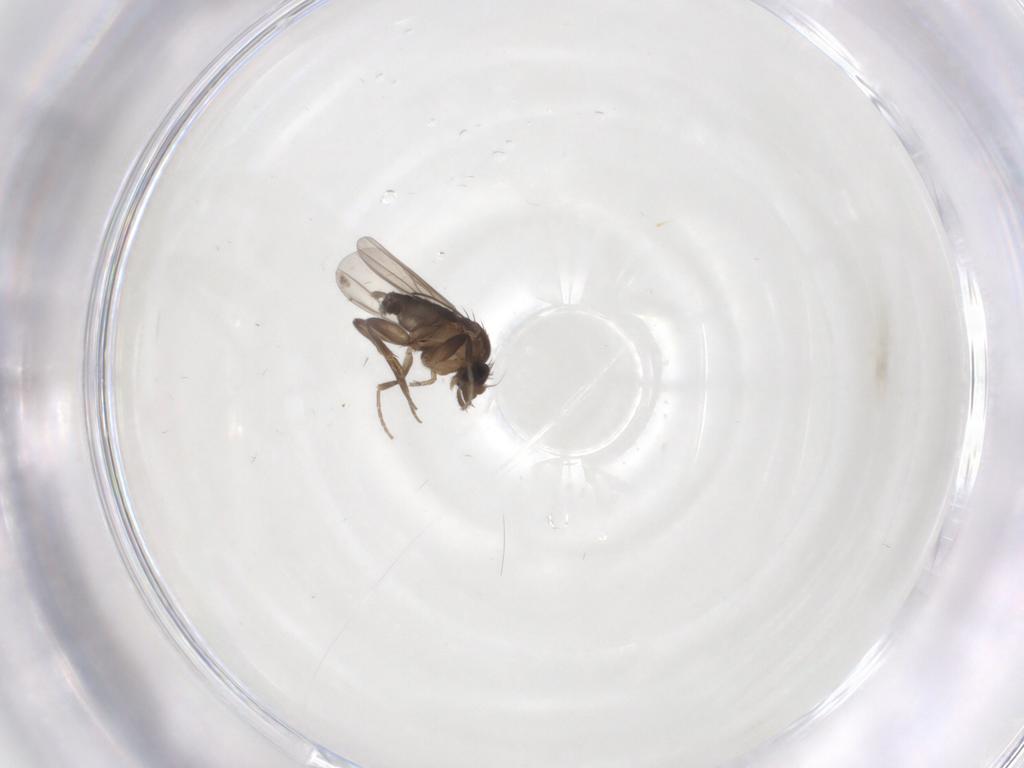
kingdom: Animalia
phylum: Arthropoda
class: Insecta
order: Diptera
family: Phoridae
